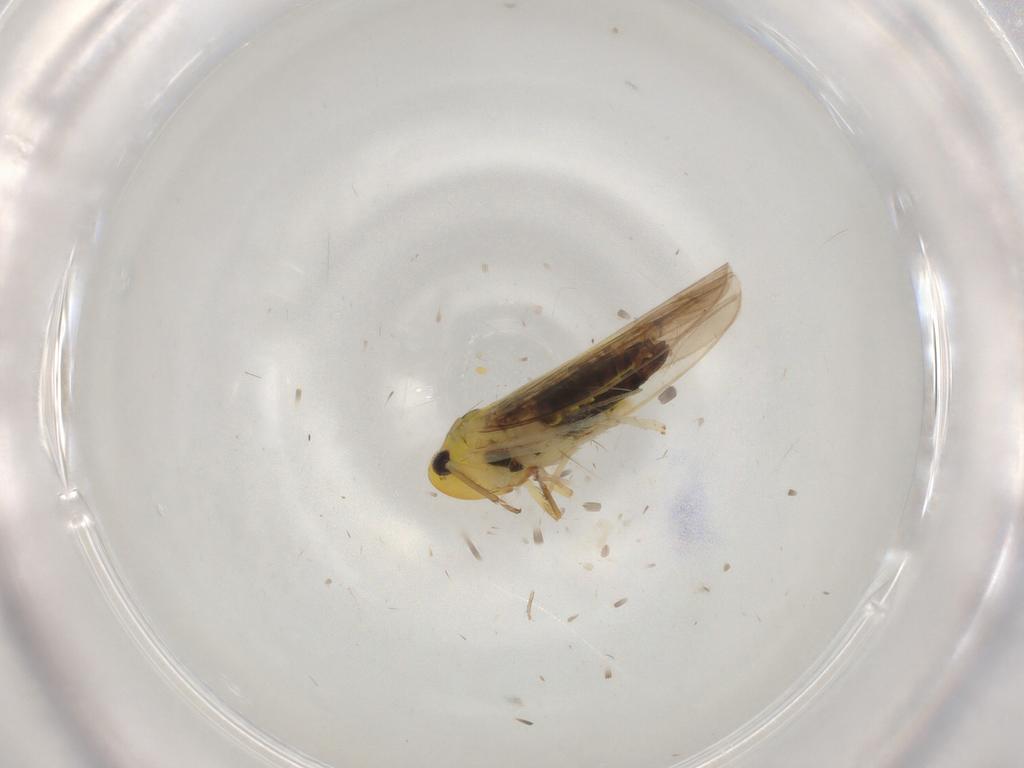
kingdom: Animalia
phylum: Arthropoda
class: Insecta
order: Hemiptera
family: Cicadellidae
